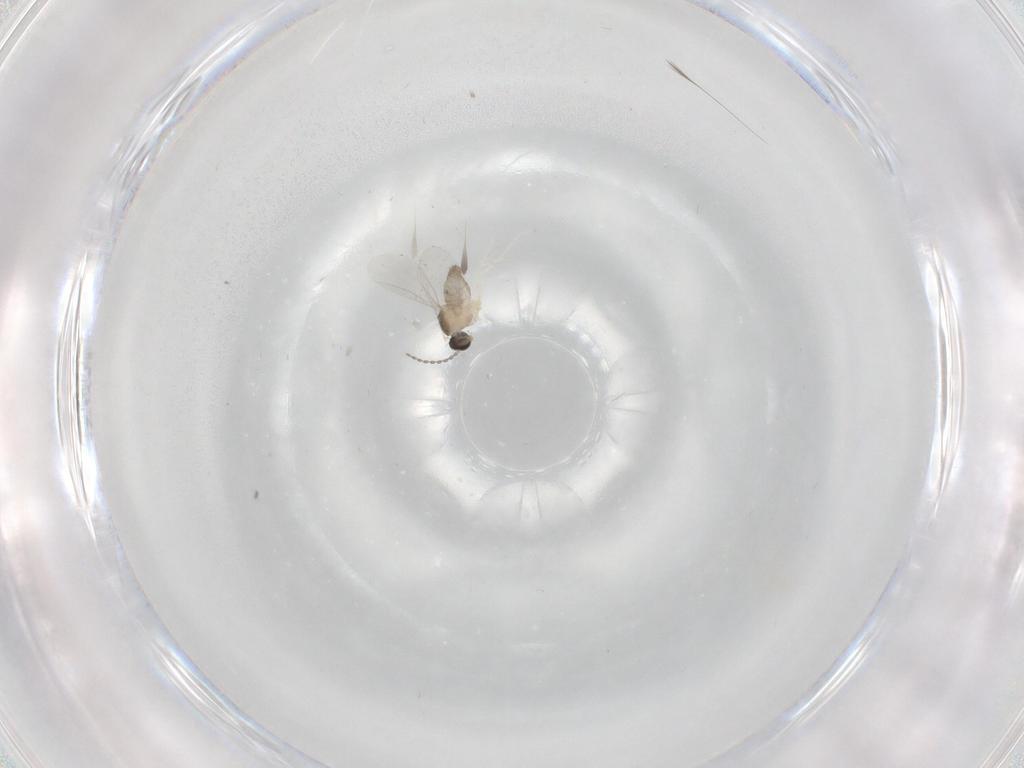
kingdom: Animalia
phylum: Arthropoda
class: Insecta
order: Diptera
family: Cecidomyiidae
